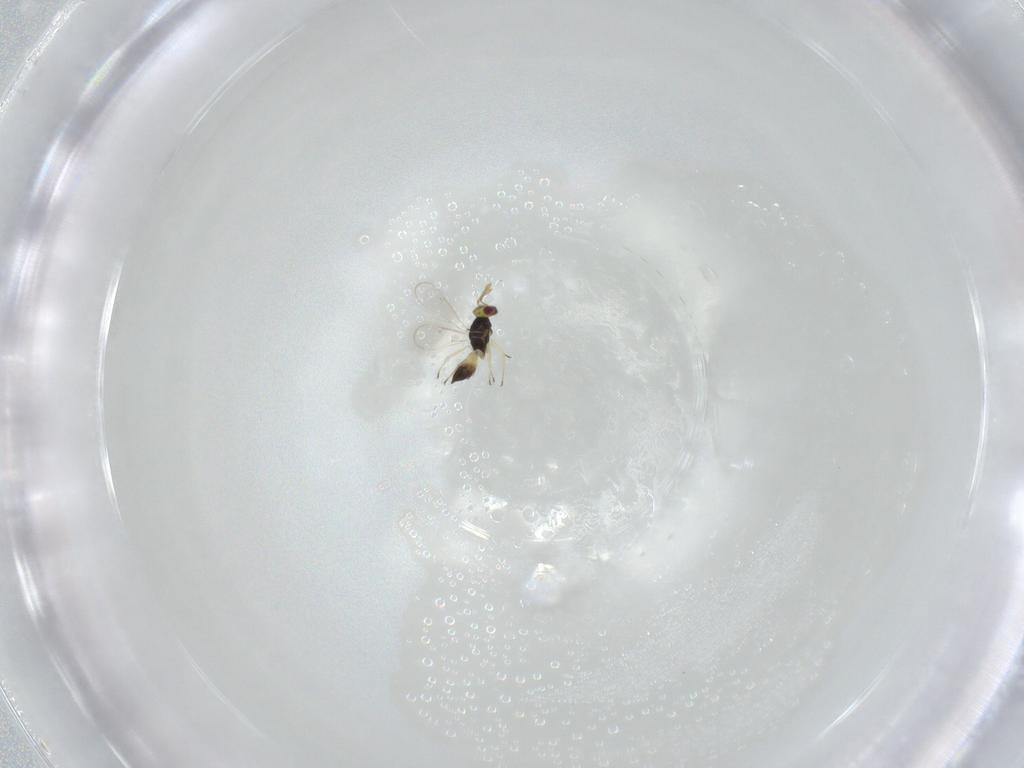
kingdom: Animalia
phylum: Arthropoda
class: Insecta
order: Hymenoptera
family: Eulophidae
